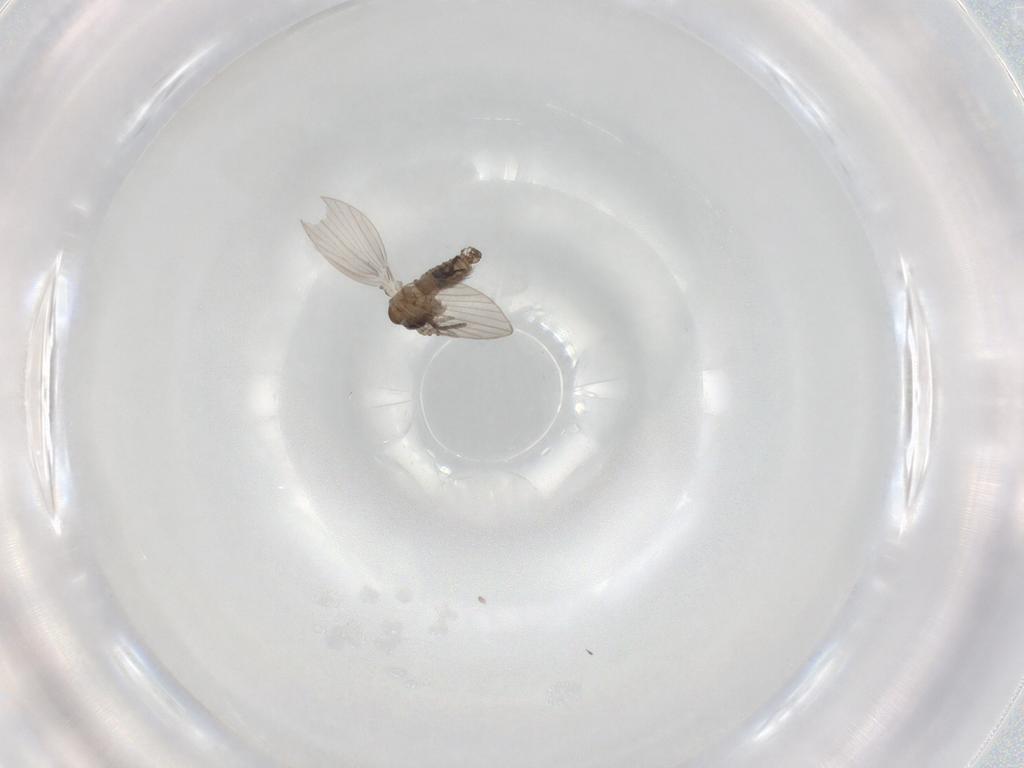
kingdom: Animalia
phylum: Arthropoda
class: Insecta
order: Diptera
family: Psychodidae
